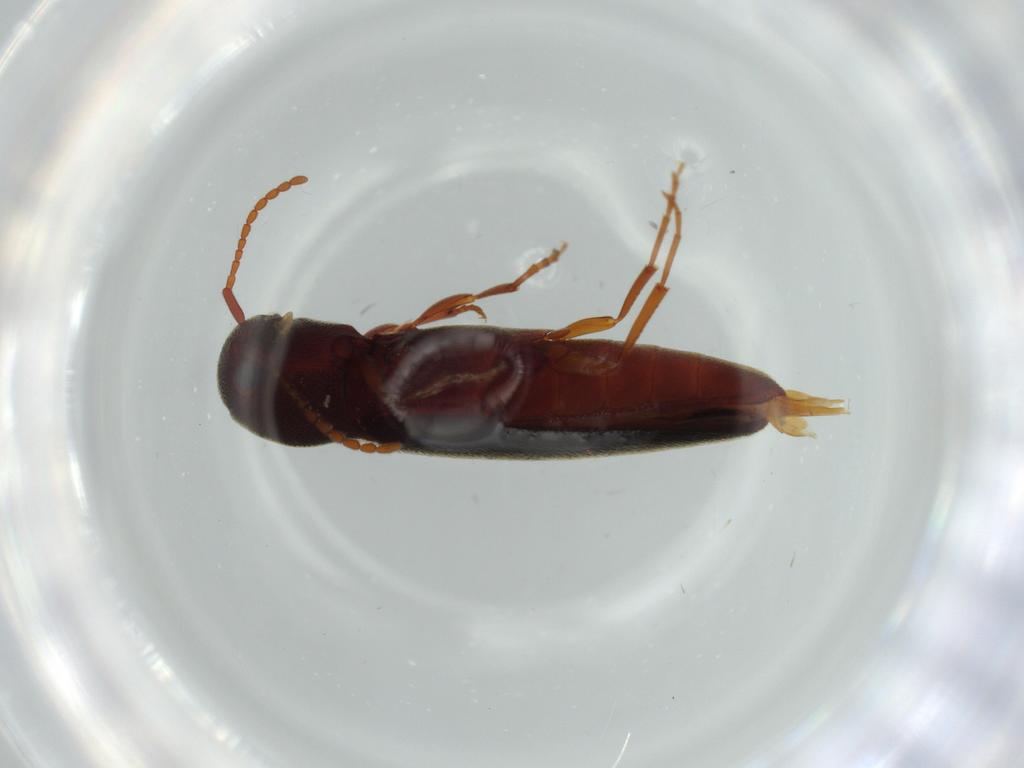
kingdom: Animalia
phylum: Arthropoda
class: Insecta
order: Coleoptera
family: Eucnemidae
